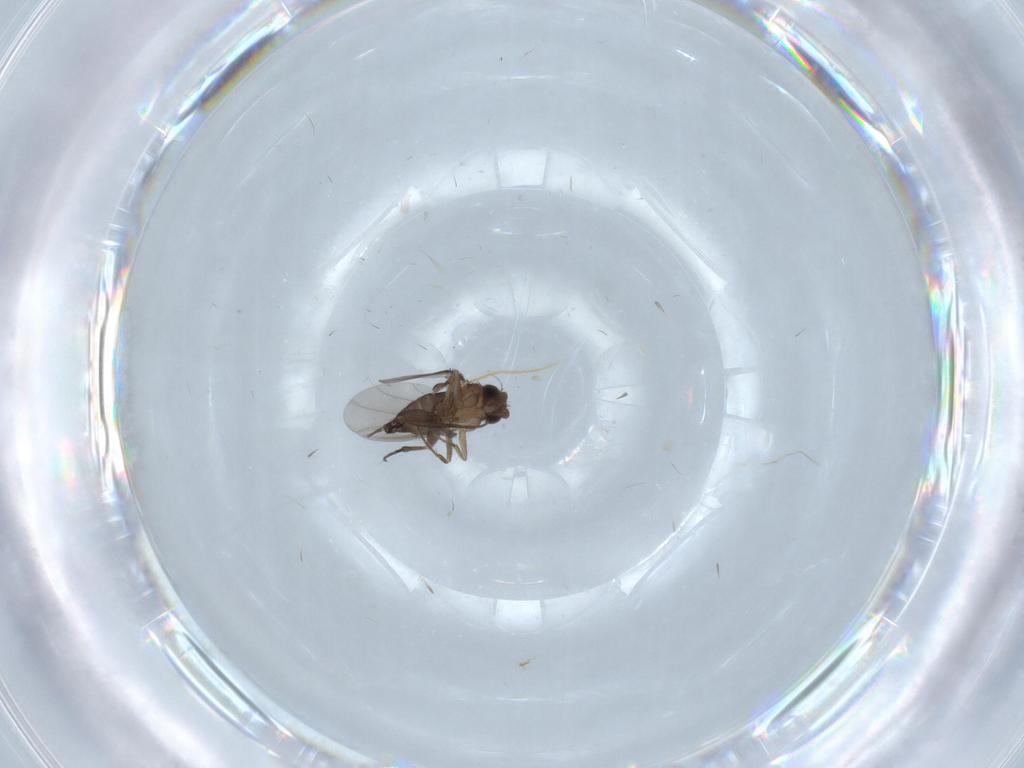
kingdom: Animalia
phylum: Arthropoda
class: Insecta
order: Diptera
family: Phoridae
